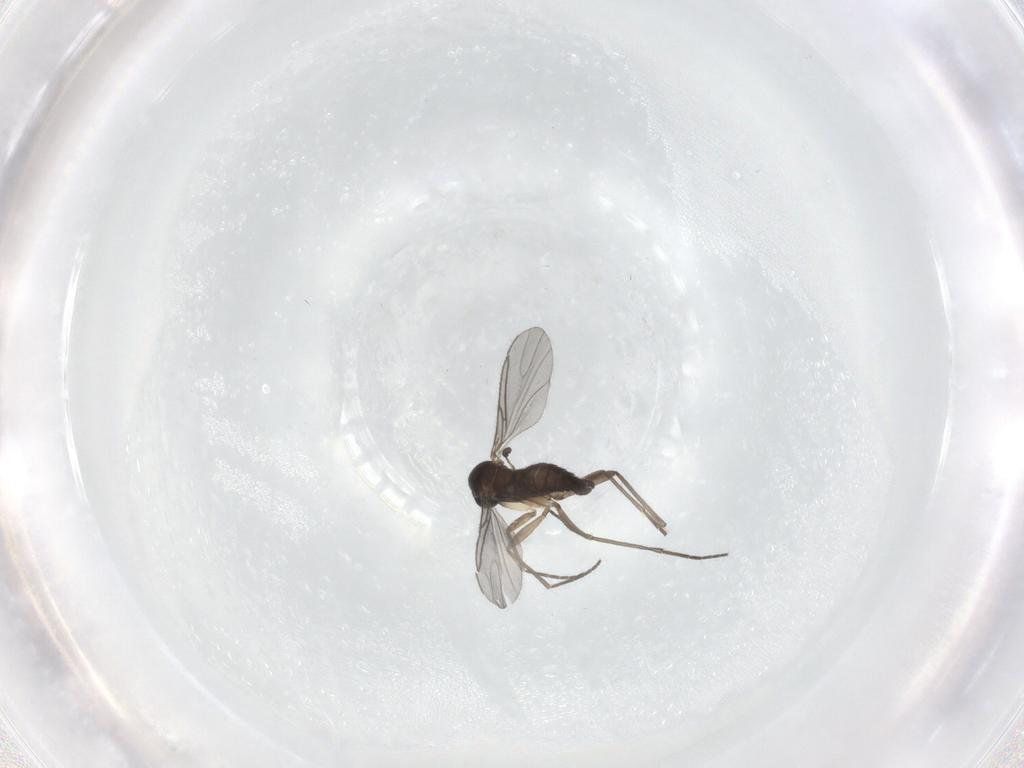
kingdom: Animalia
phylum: Arthropoda
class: Insecta
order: Diptera
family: Sciaridae
